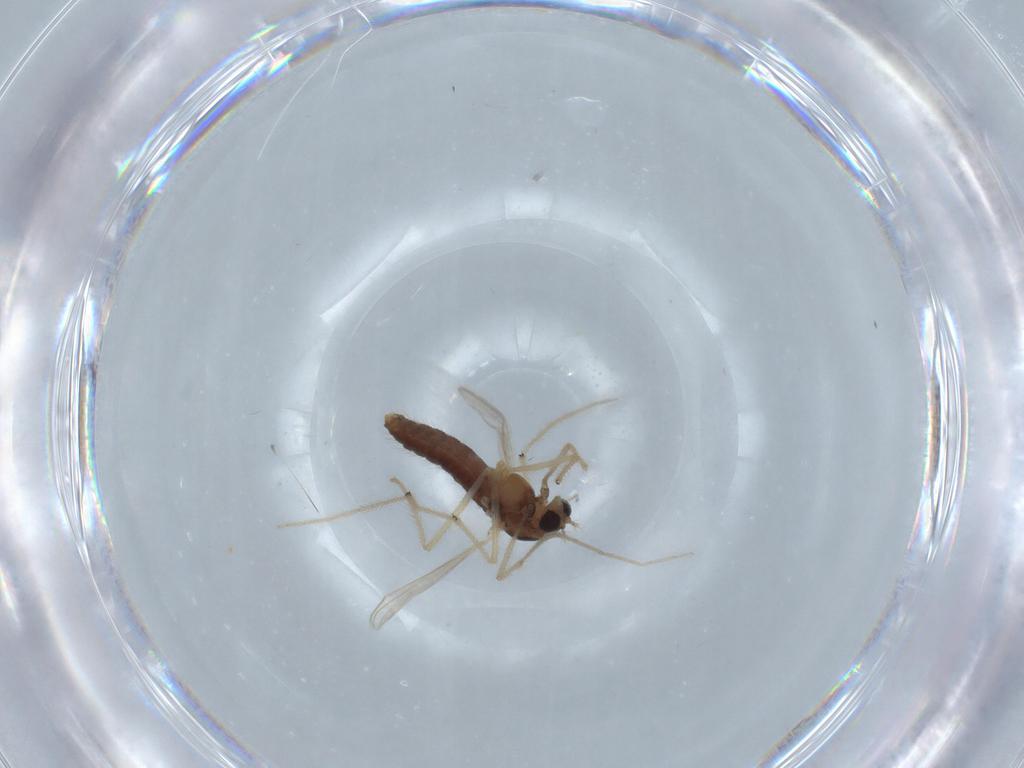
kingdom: Animalia
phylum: Arthropoda
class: Insecta
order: Diptera
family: Chironomidae
